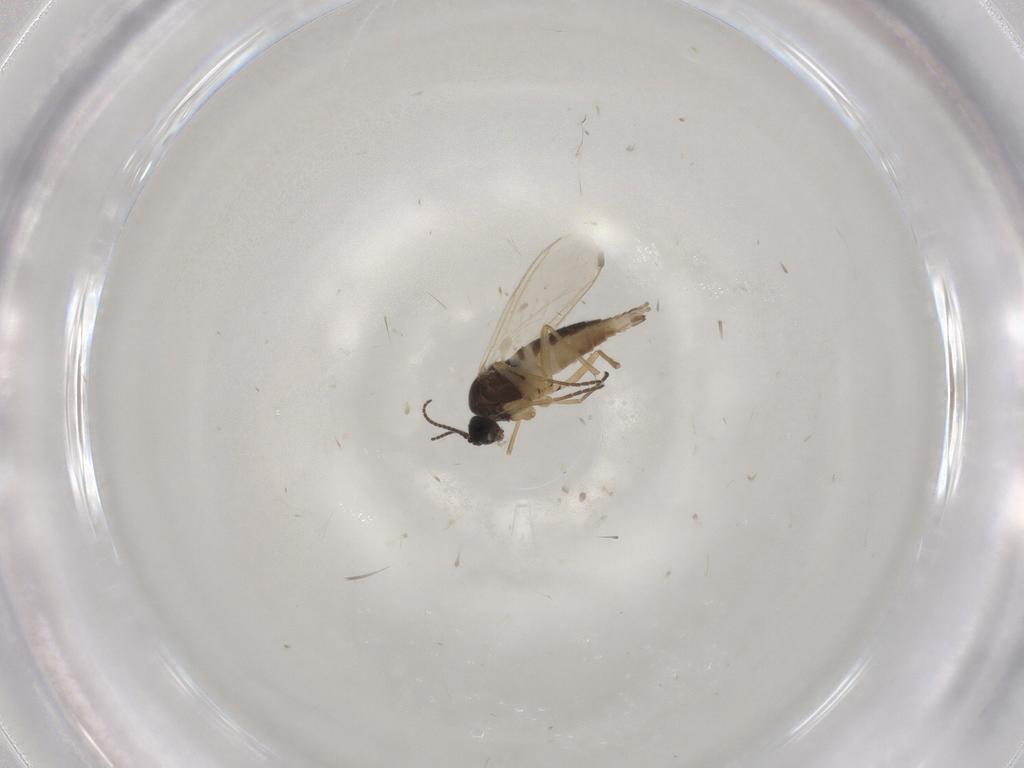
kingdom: Animalia
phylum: Arthropoda
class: Insecta
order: Diptera
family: Sciaridae
